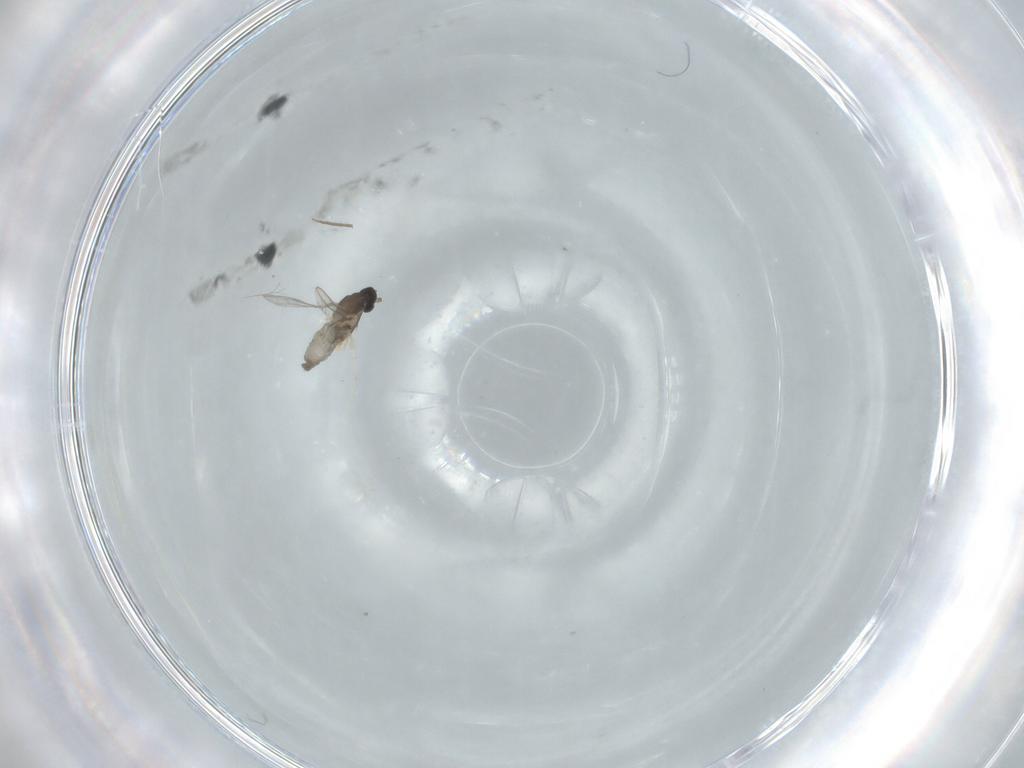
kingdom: Animalia
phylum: Arthropoda
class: Insecta
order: Diptera
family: Cecidomyiidae
